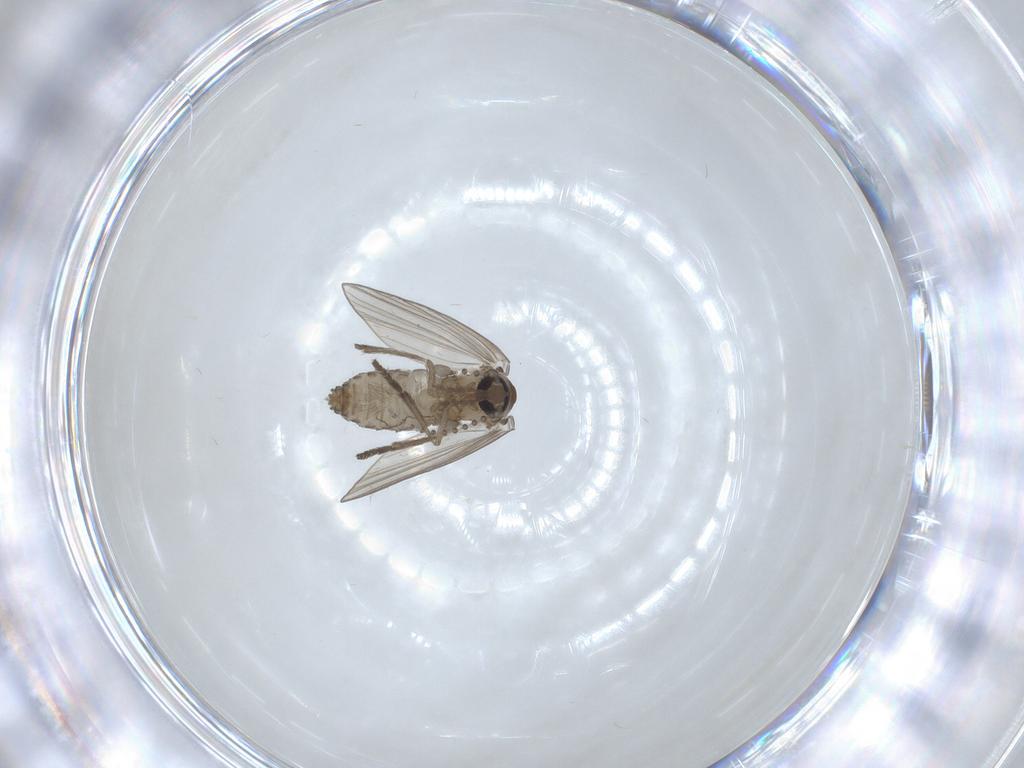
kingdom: Animalia
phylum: Arthropoda
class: Insecta
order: Diptera
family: Psychodidae
